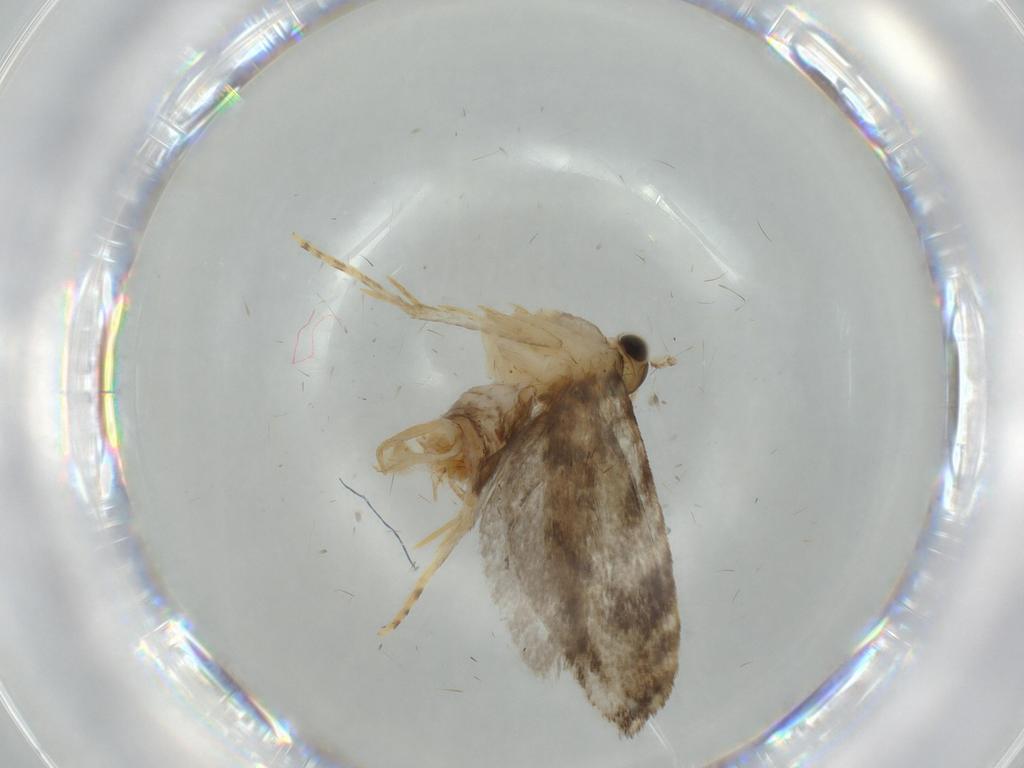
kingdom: Animalia
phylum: Arthropoda
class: Insecta
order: Lepidoptera
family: Tineidae
